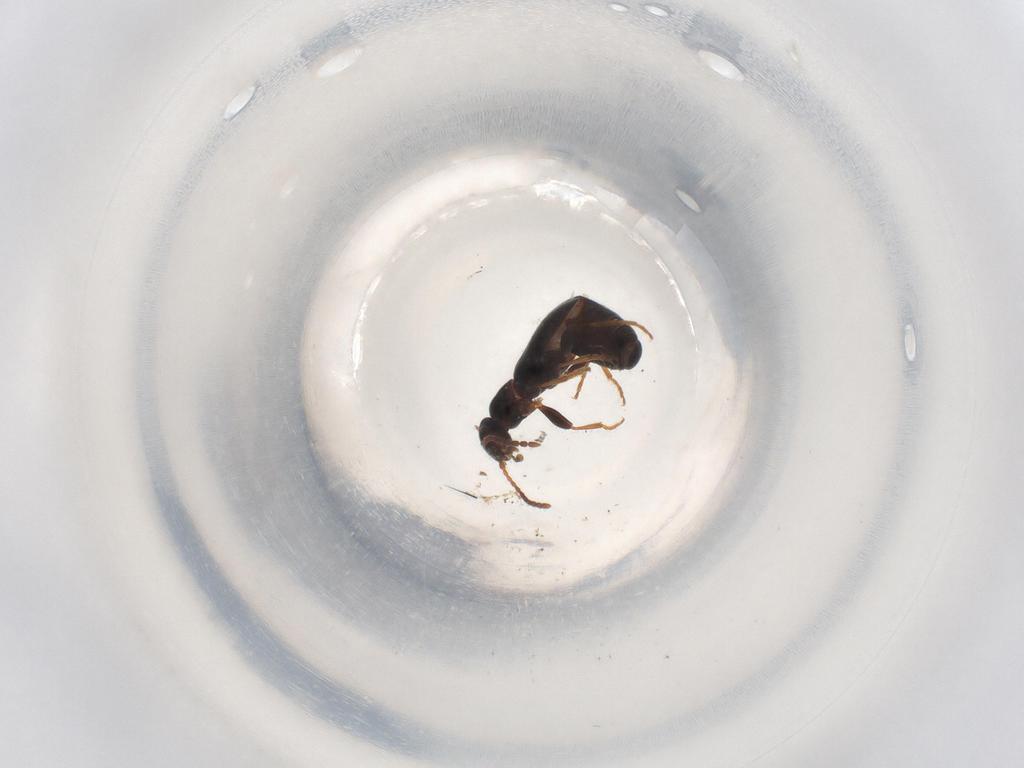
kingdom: Animalia
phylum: Arthropoda
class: Insecta
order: Coleoptera
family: Anthicidae
